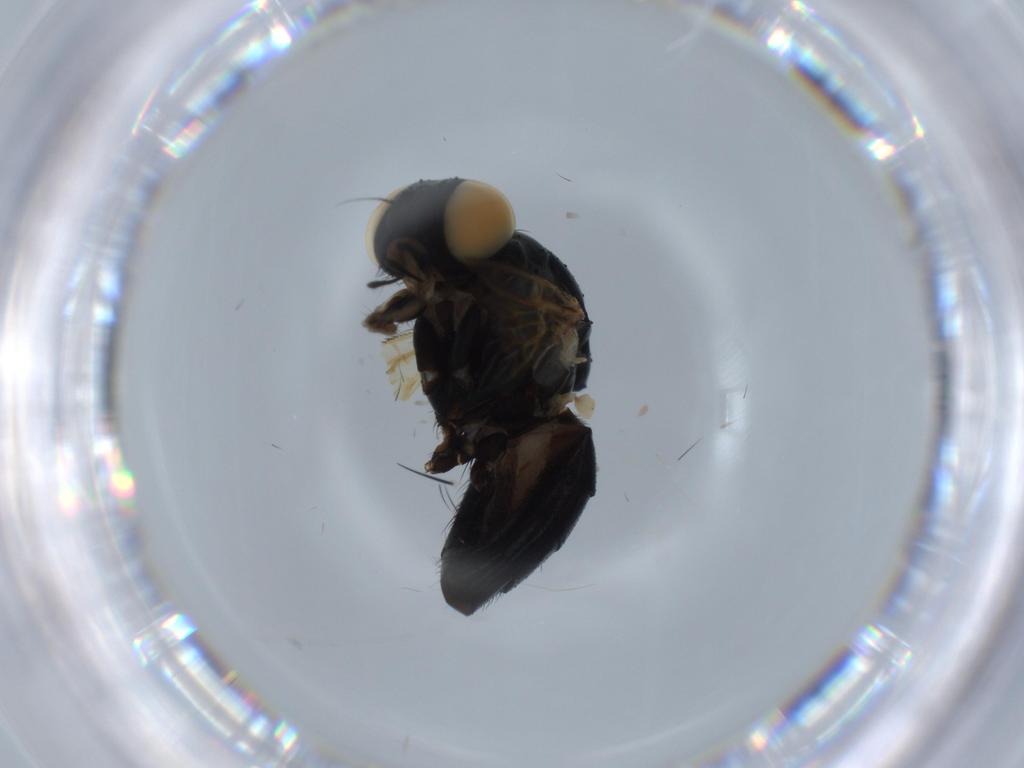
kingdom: Animalia
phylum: Arthropoda
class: Insecta
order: Diptera
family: Fannia
